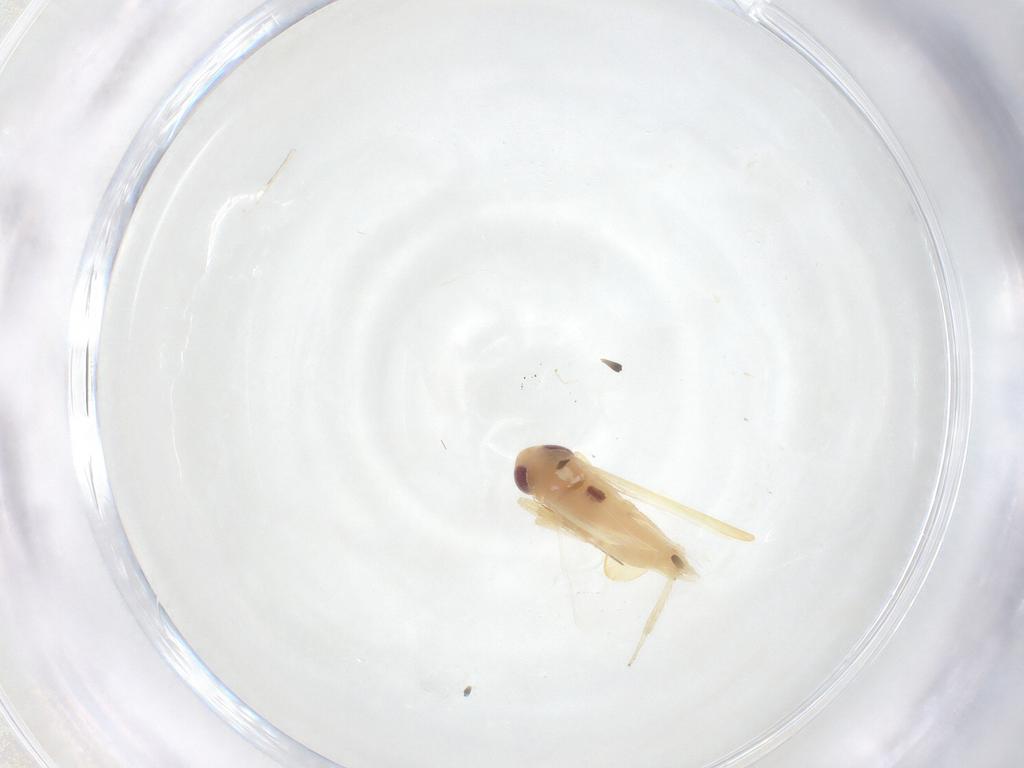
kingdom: Animalia
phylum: Arthropoda
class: Insecta
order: Hemiptera
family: Cicadellidae
